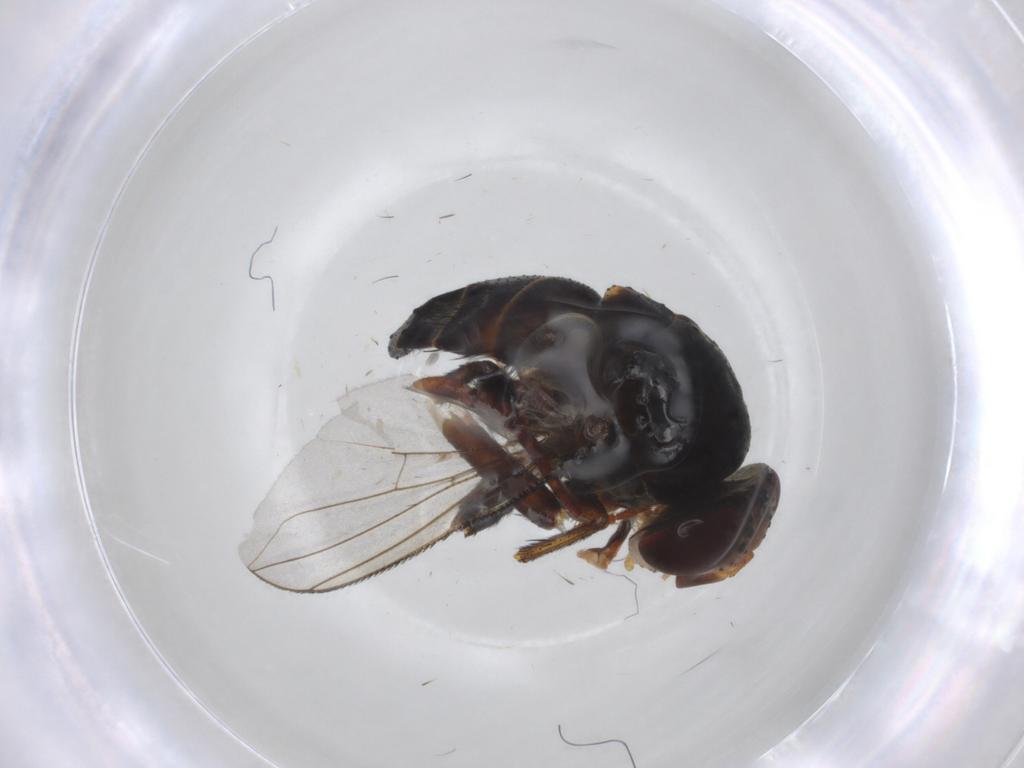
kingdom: Animalia
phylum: Arthropoda
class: Insecta
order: Diptera
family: Muscidae
